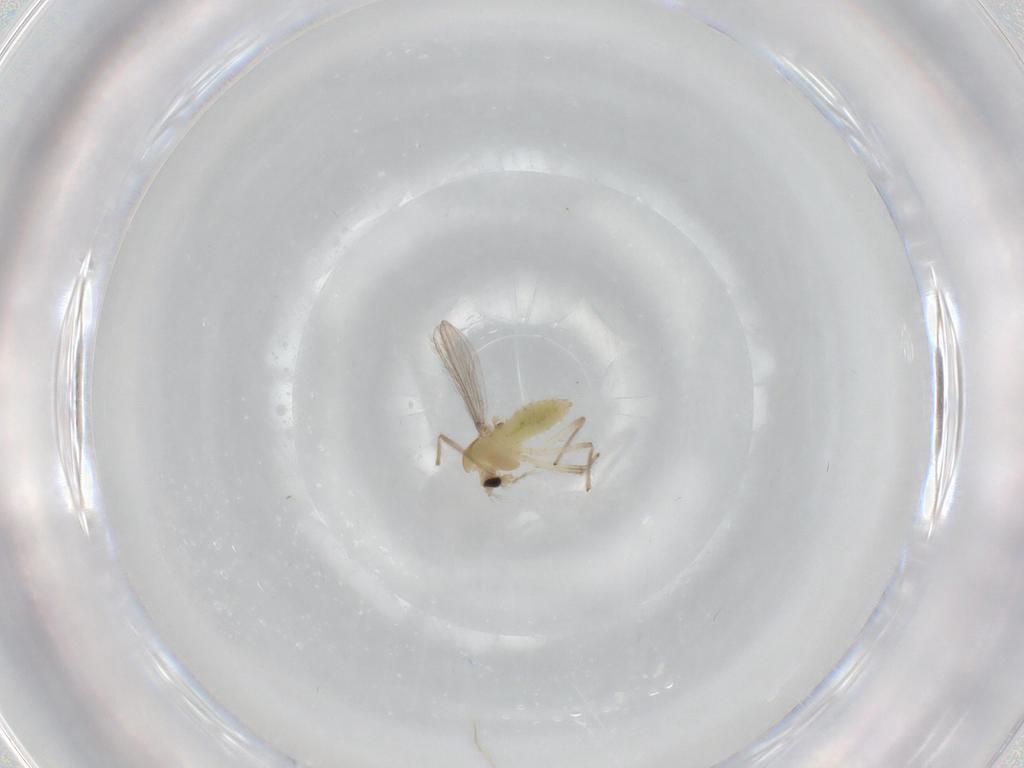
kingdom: Animalia
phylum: Arthropoda
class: Insecta
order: Diptera
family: Chironomidae
